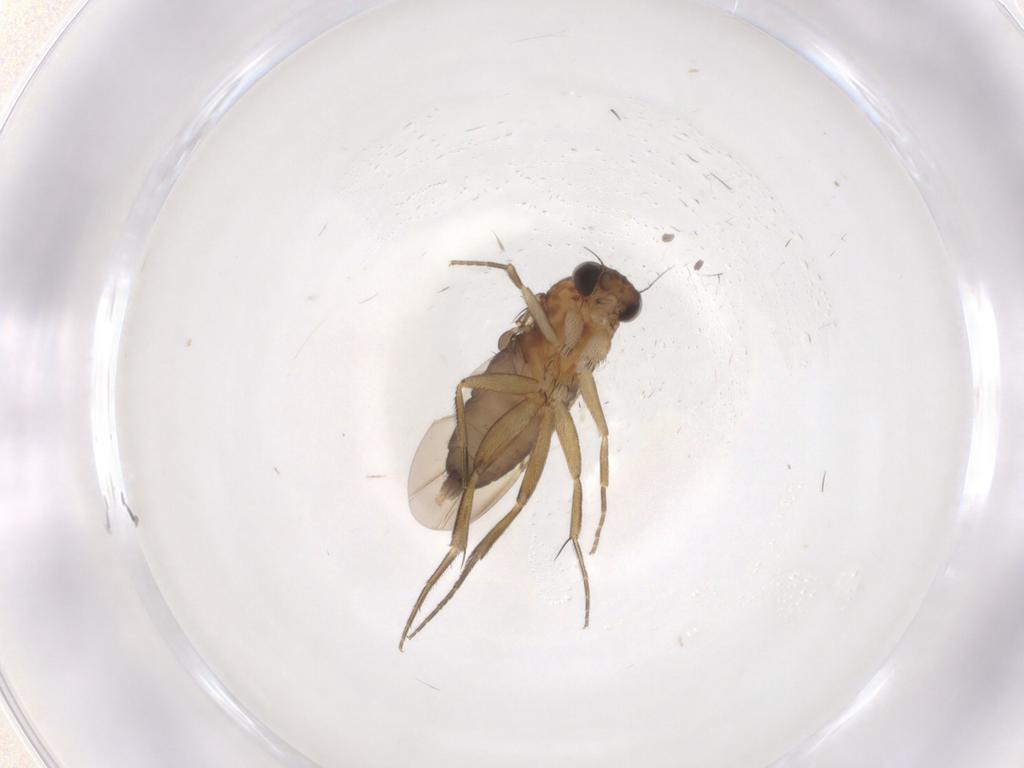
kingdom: Animalia
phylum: Arthropoda
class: Insecta
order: Diptera
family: Phoridae
